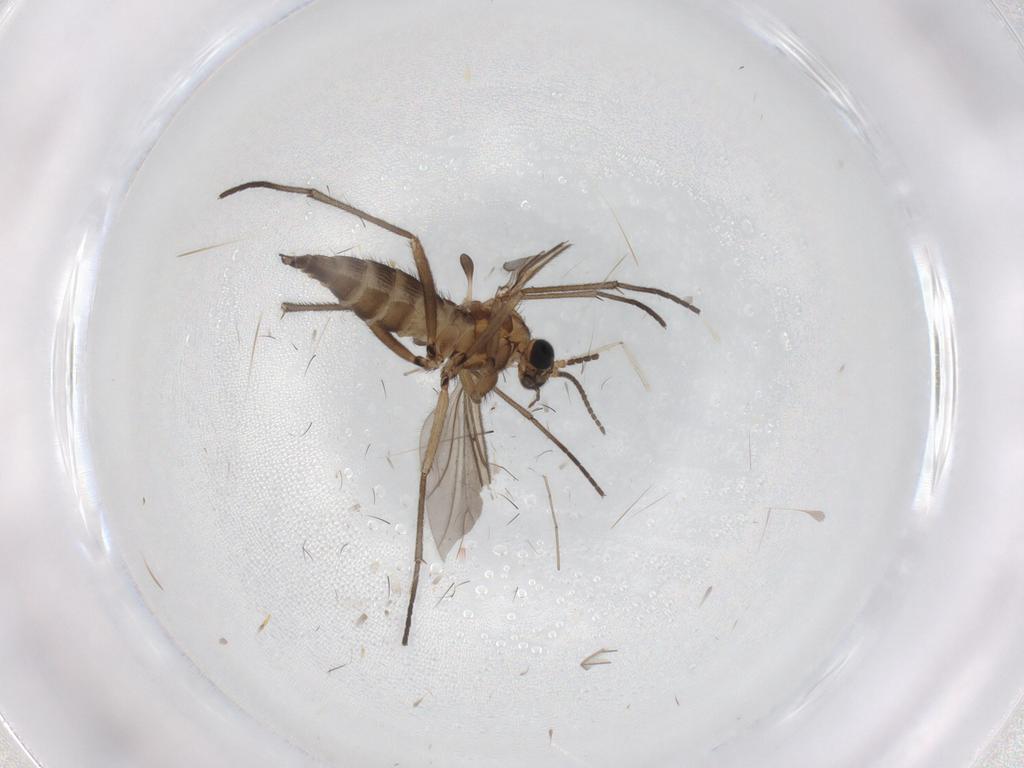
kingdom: Animalia
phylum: Arthropoda
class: Insecta
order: Diptera
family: Sciaridae
